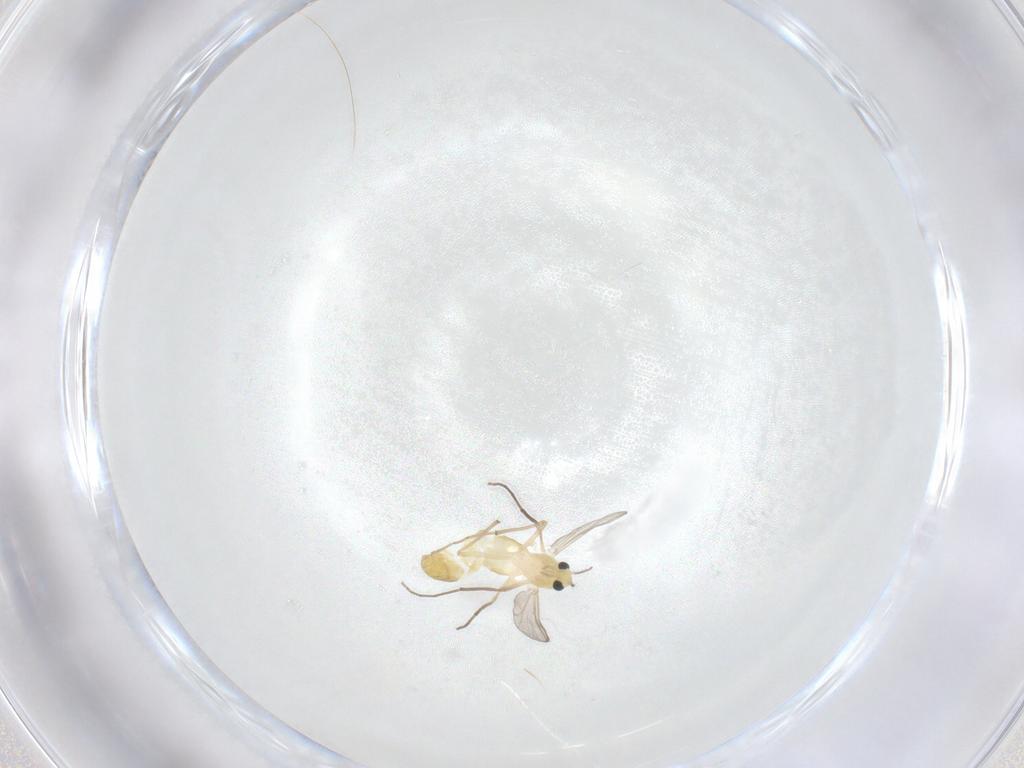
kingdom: Animalia
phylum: Arthropoda
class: Insecta
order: Diptera
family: Chironomidae
